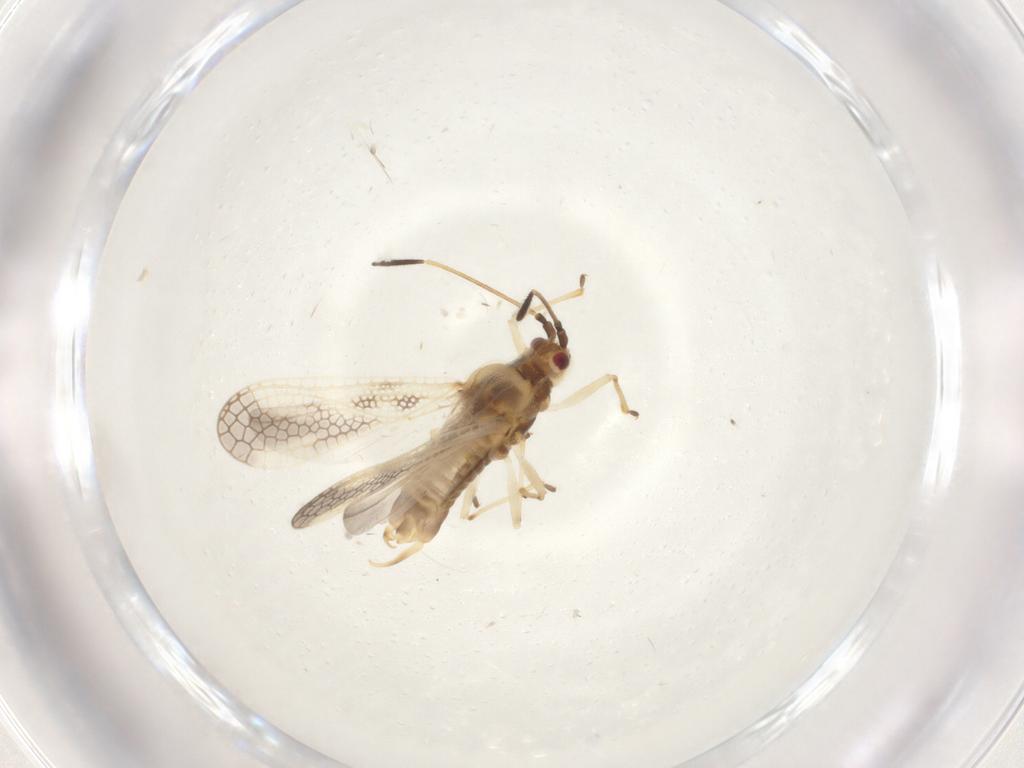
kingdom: Animalia
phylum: Arthropoda
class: Insecta
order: Hemiptera
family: Tingidae
